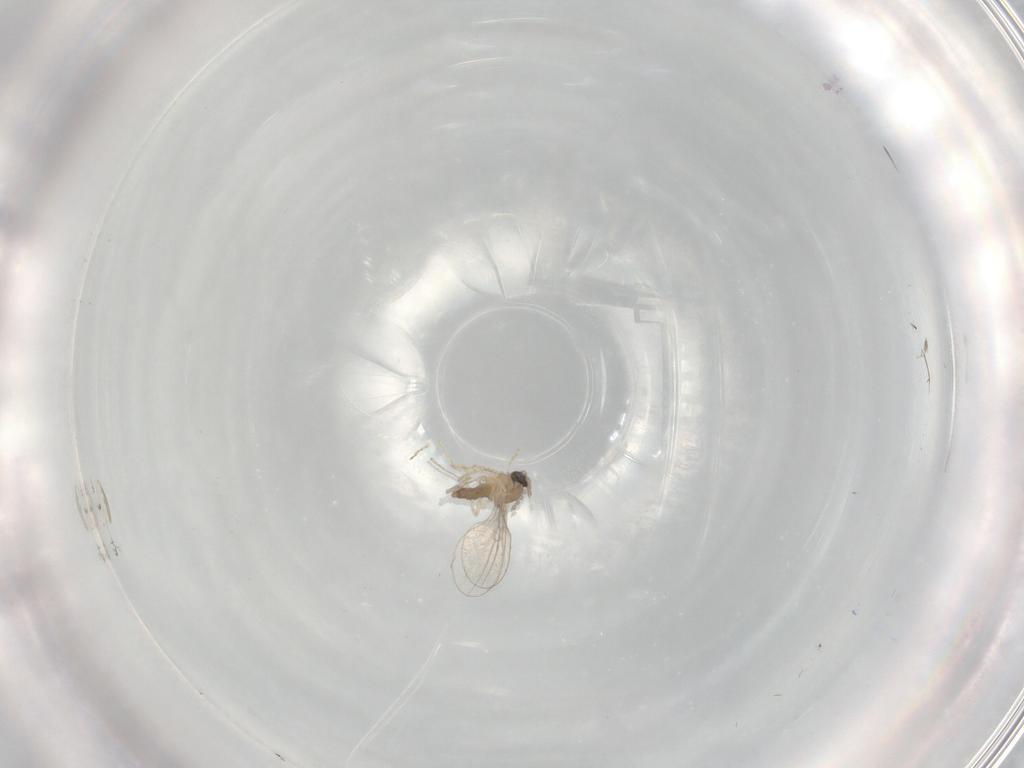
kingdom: Animalia
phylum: Arthropoda
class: Insecta
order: Diptera
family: Cecidomyiidae
